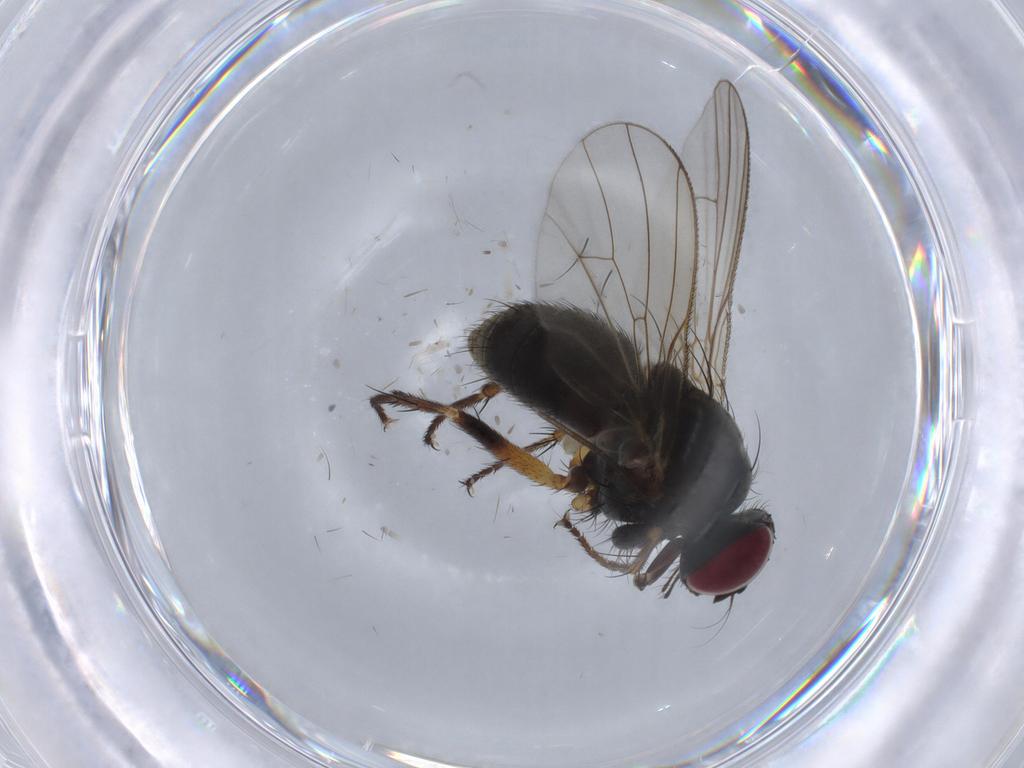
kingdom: Animalia
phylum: Arthropoda
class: Insecta
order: Diptera
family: Muscidae
